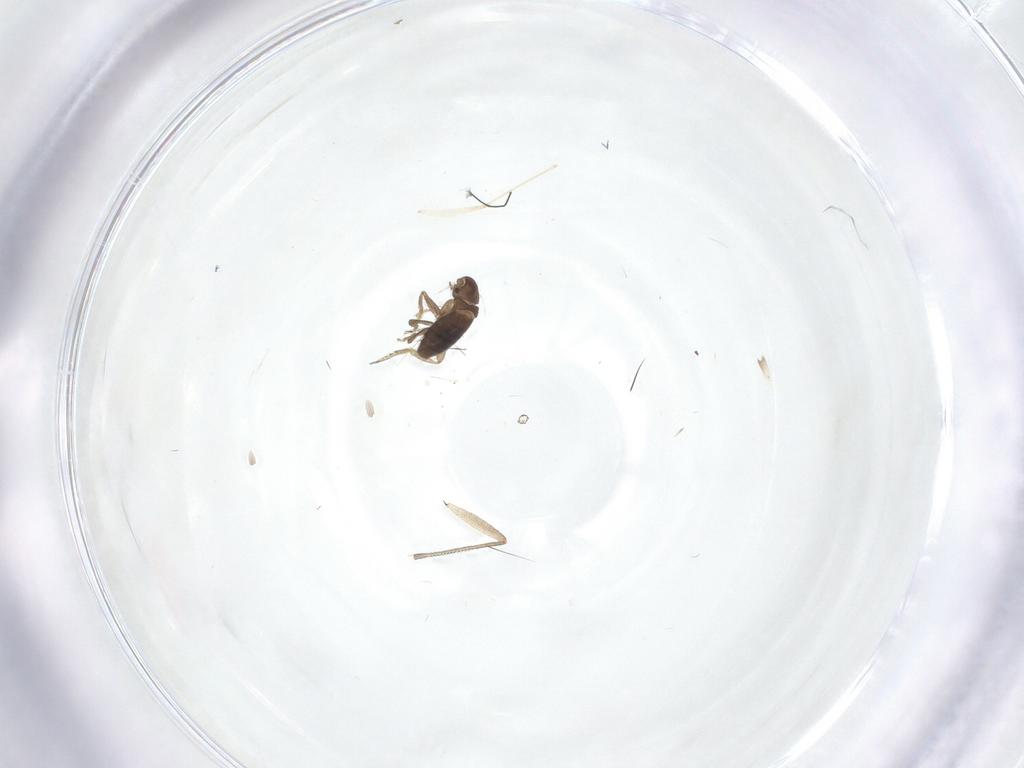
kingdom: Animalia
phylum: Arthropoda
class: Insecta
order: Diptera
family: Phoridae
